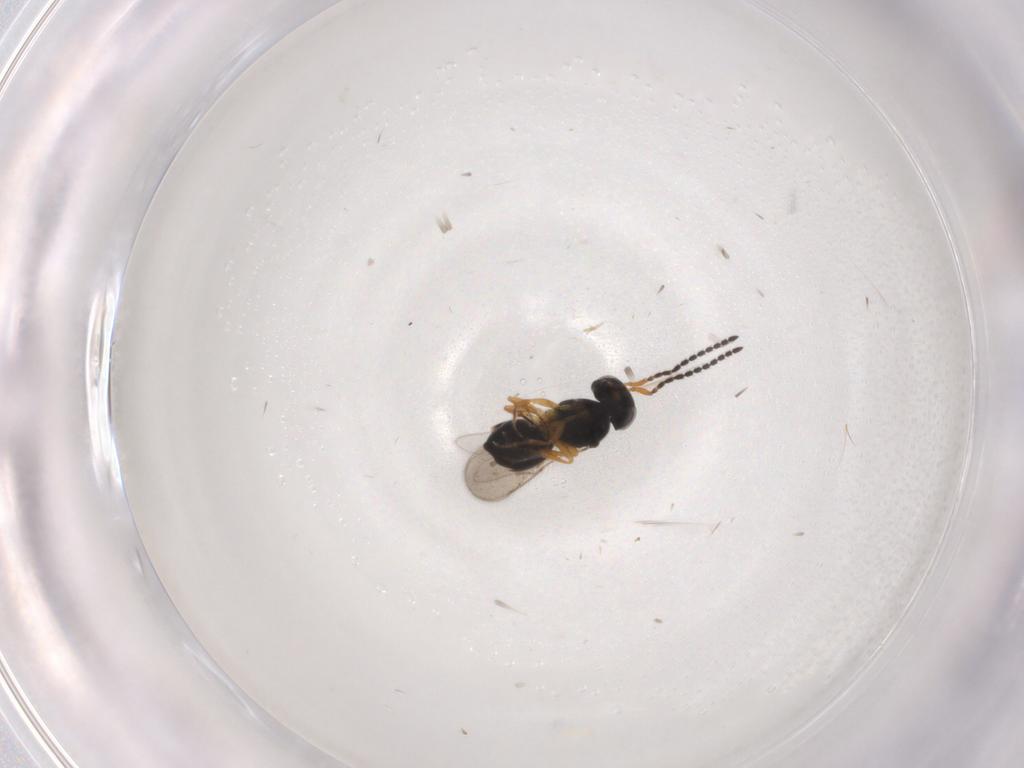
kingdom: Animalia
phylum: Arthropoda
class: Insecta
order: Hymenoptera
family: Scelionidae
